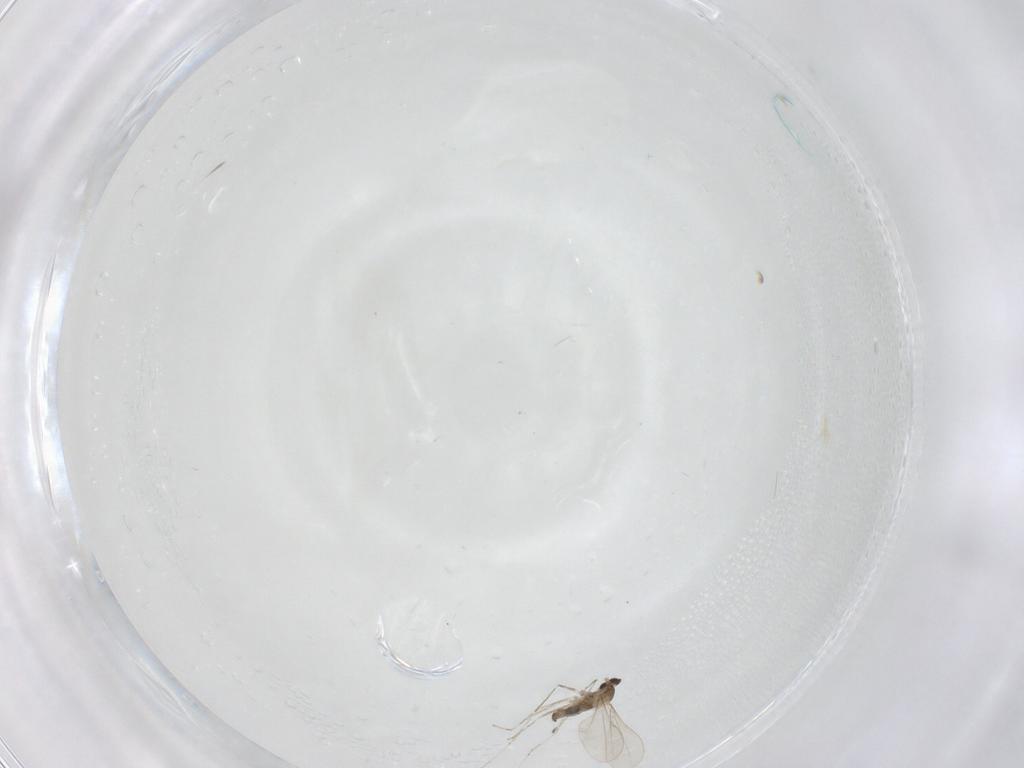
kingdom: Animalia
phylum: Arthropoda
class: Insecta
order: Diptera
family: Cecidomyiidae
